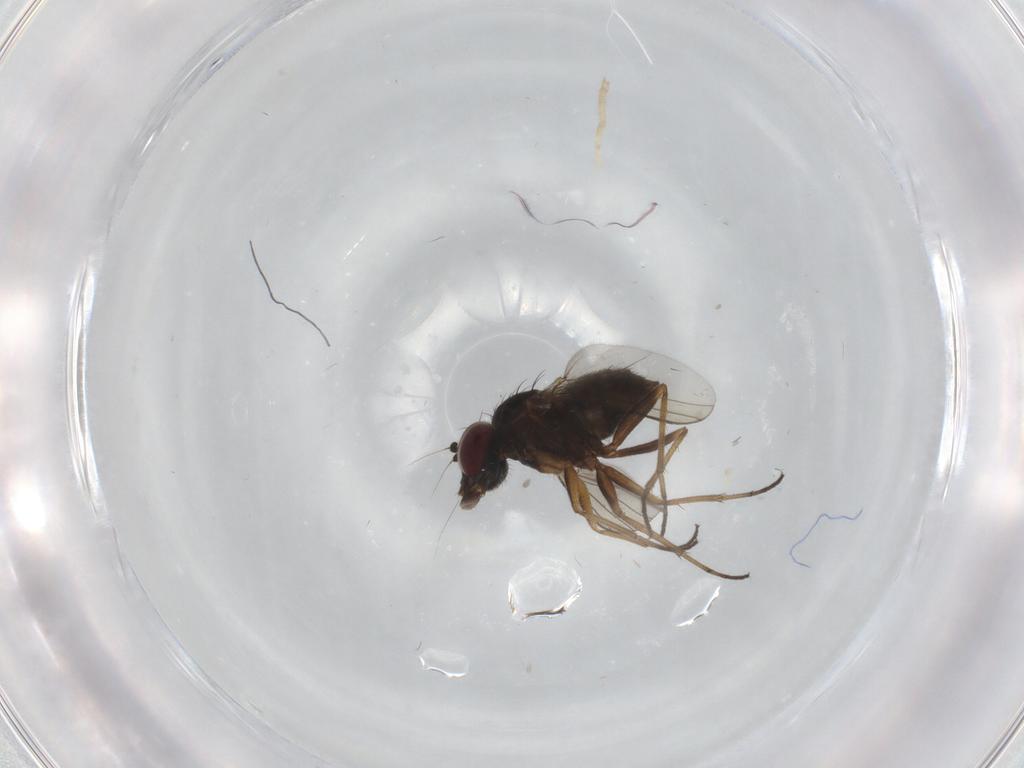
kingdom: Animalia
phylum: Arthropoda
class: Insecta
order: Diptera
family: Dolichopodidae
